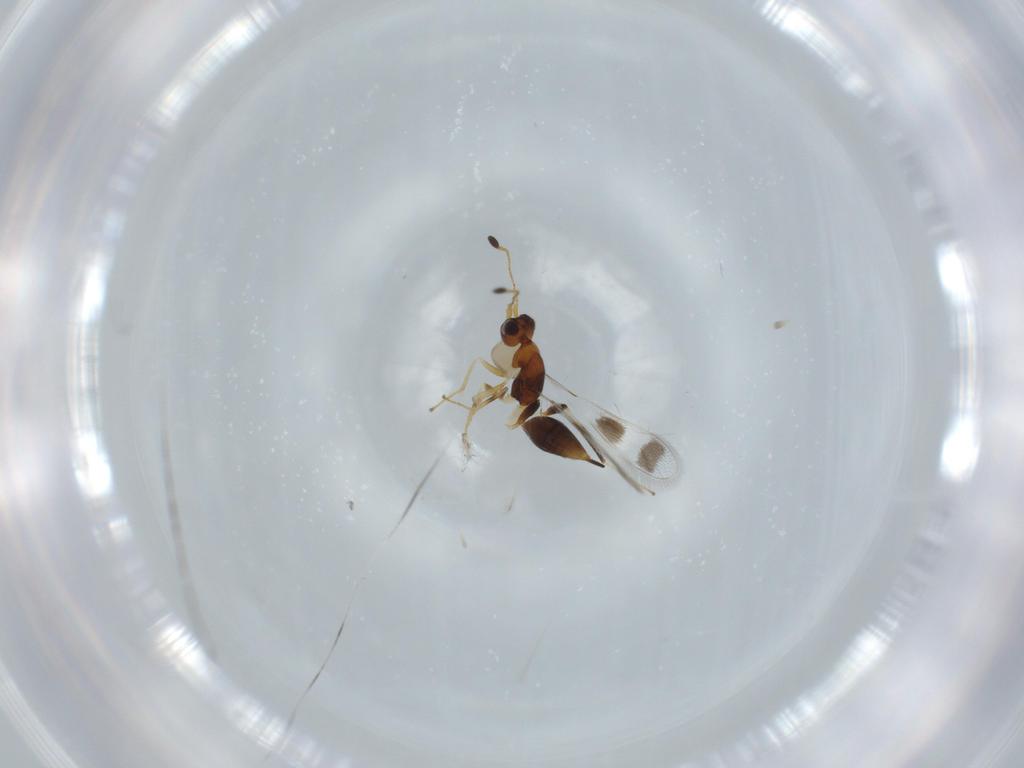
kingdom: Animalia
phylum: Arthropoda
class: Insecta
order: Hymenoptera
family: Mymaridae
